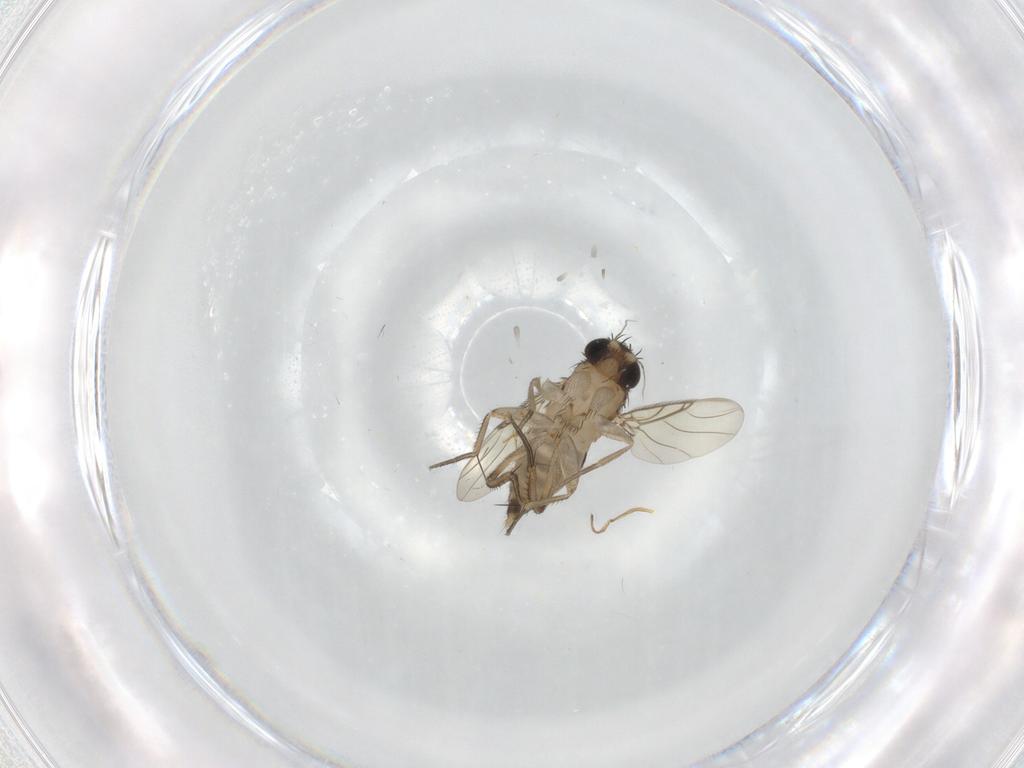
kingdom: Animalia
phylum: Arthropoda
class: Insecta
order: Diptera
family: Phoridae
